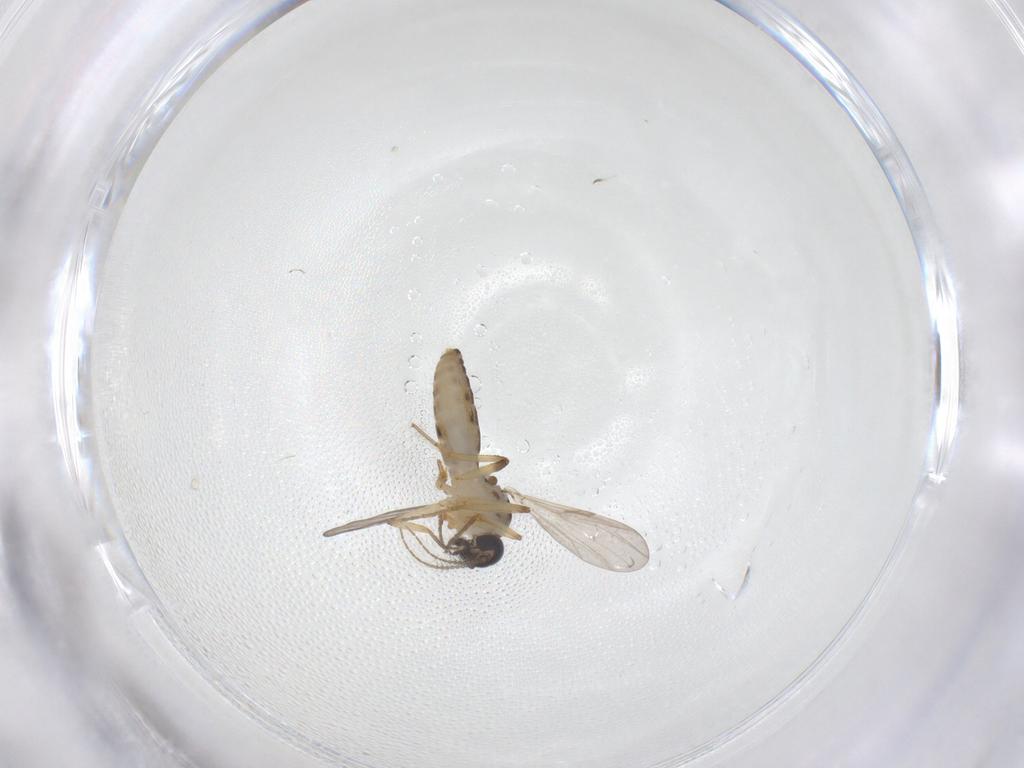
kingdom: Animalia
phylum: Arthropoda
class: Insecta
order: Diptera
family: Ceratopogonidae
